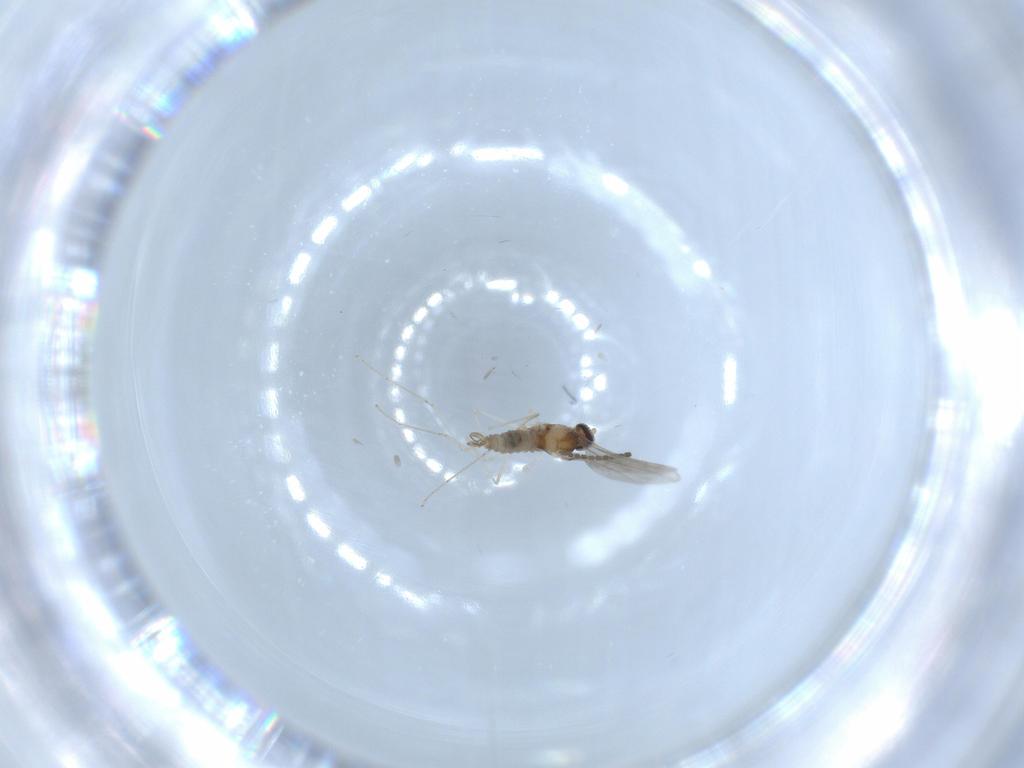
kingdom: Animalia
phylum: Arthropoda
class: Insecta
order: Diptera
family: Cecidomyiidae
